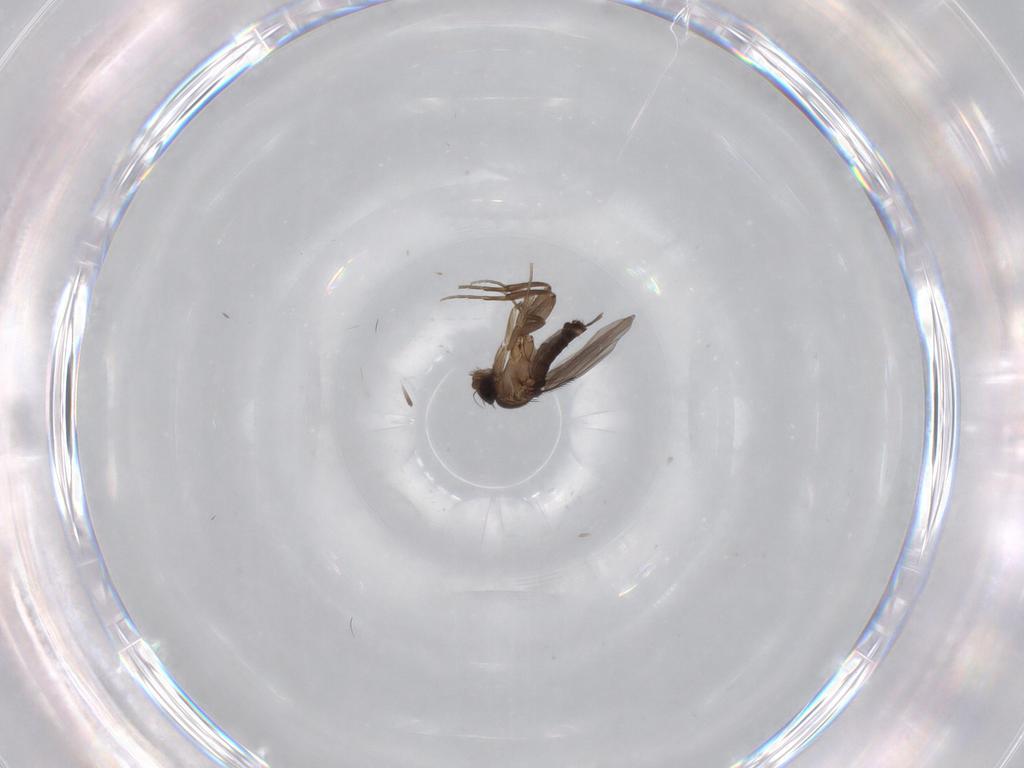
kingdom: Animalia
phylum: Arthropoda
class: Insecta
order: Diptera
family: Phoridae
